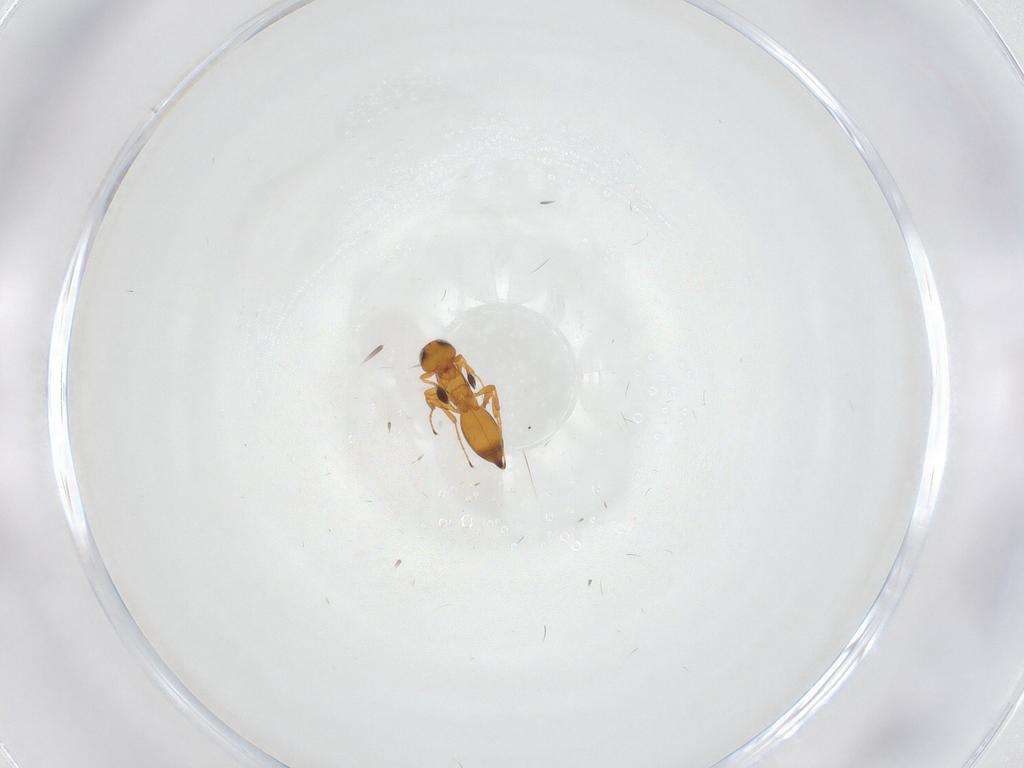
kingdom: Animalia
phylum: Arthropoda
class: Insecta
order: Hymenoptera
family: Platygastridae
